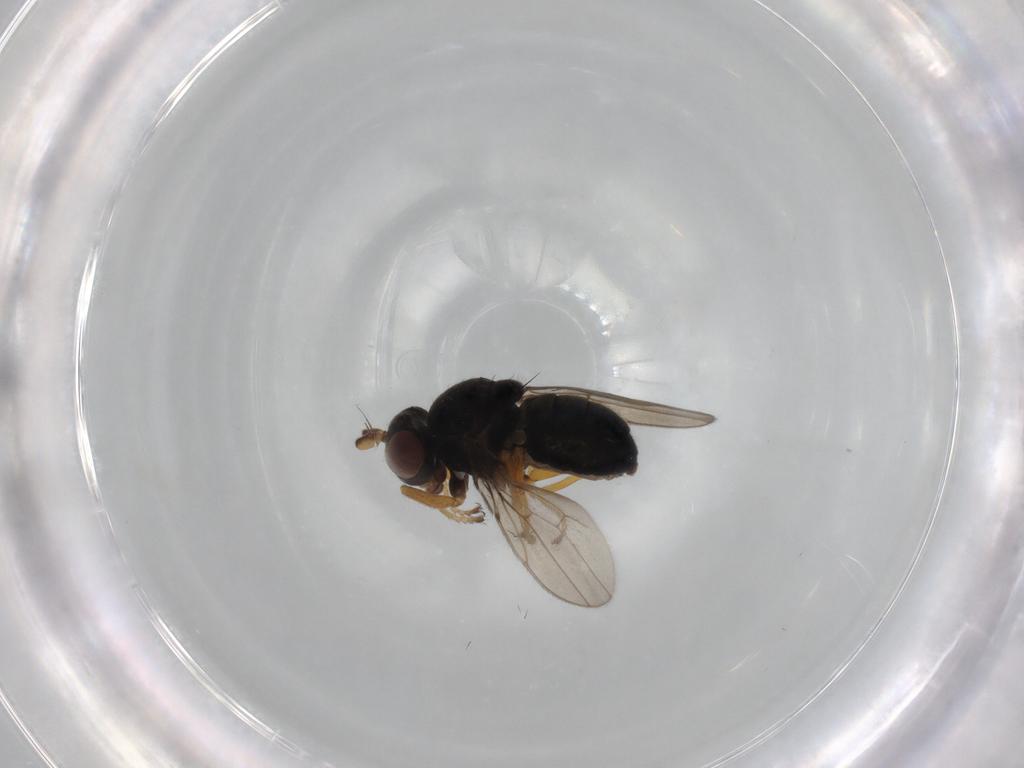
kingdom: Animalia
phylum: Arthropoda
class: Insecta
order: Diptera
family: Ephydridae
